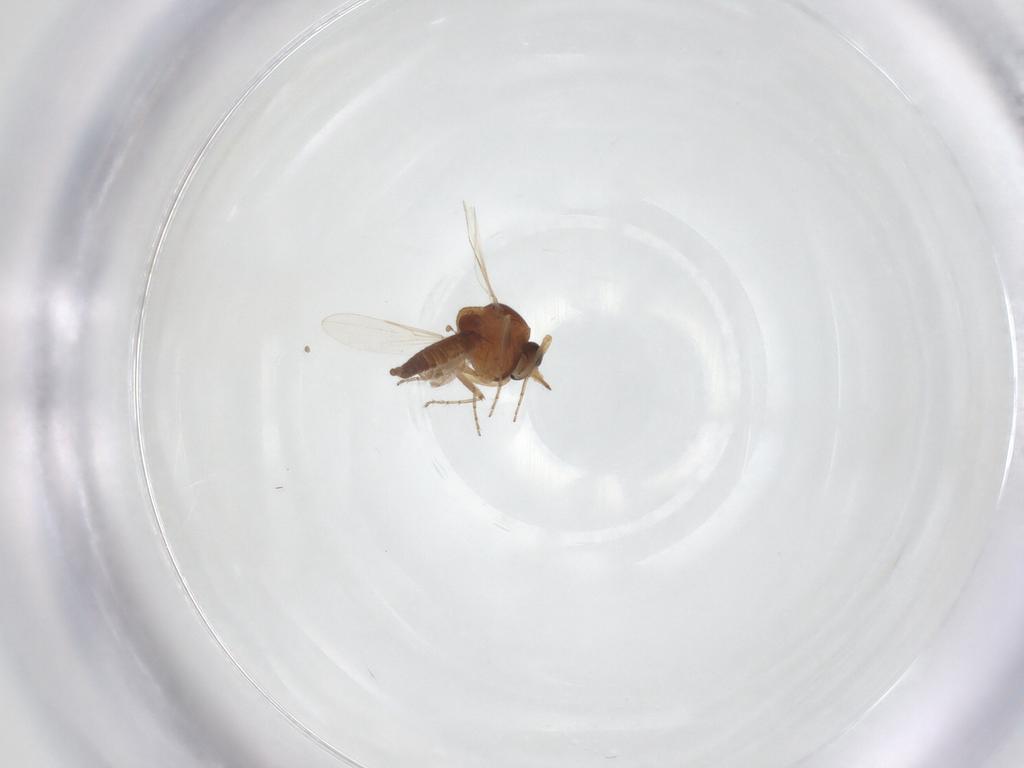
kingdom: Animalia
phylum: Arthropoda
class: Insecta
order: Diptera
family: Ceratopogonidae
